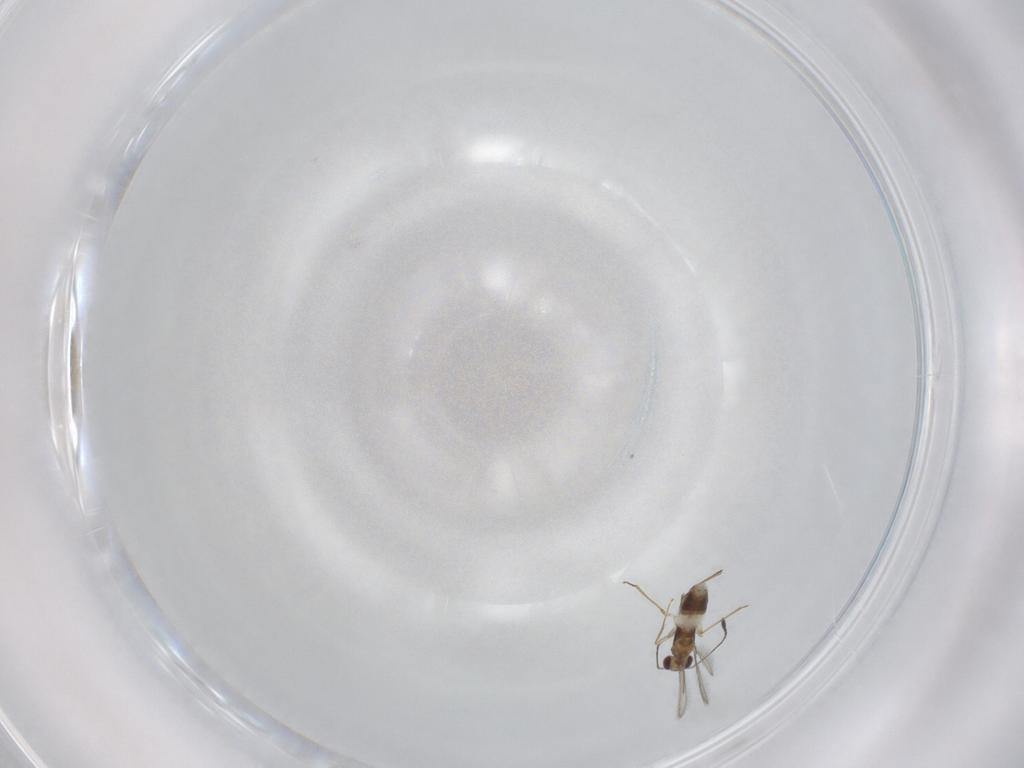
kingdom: Animalia
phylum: Arthropoda
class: Insecta
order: Hymenoptera
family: Mymaridae
